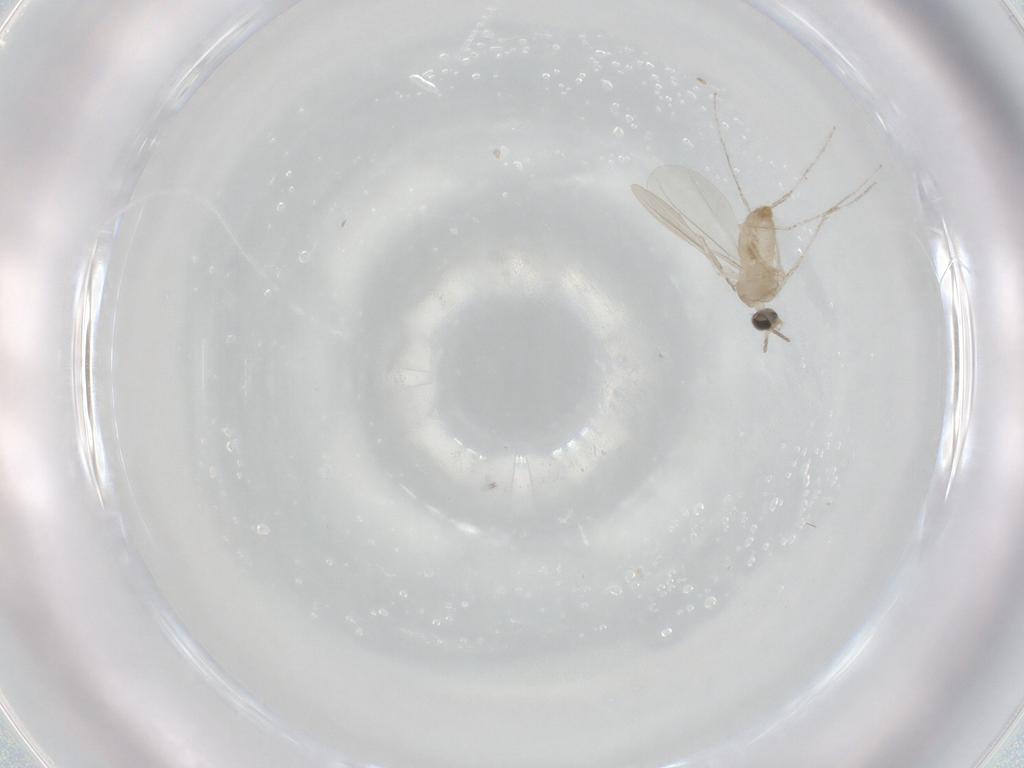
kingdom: Animalia
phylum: Arthropoda
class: Insecta
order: Diptera
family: Cecidomyiidae
